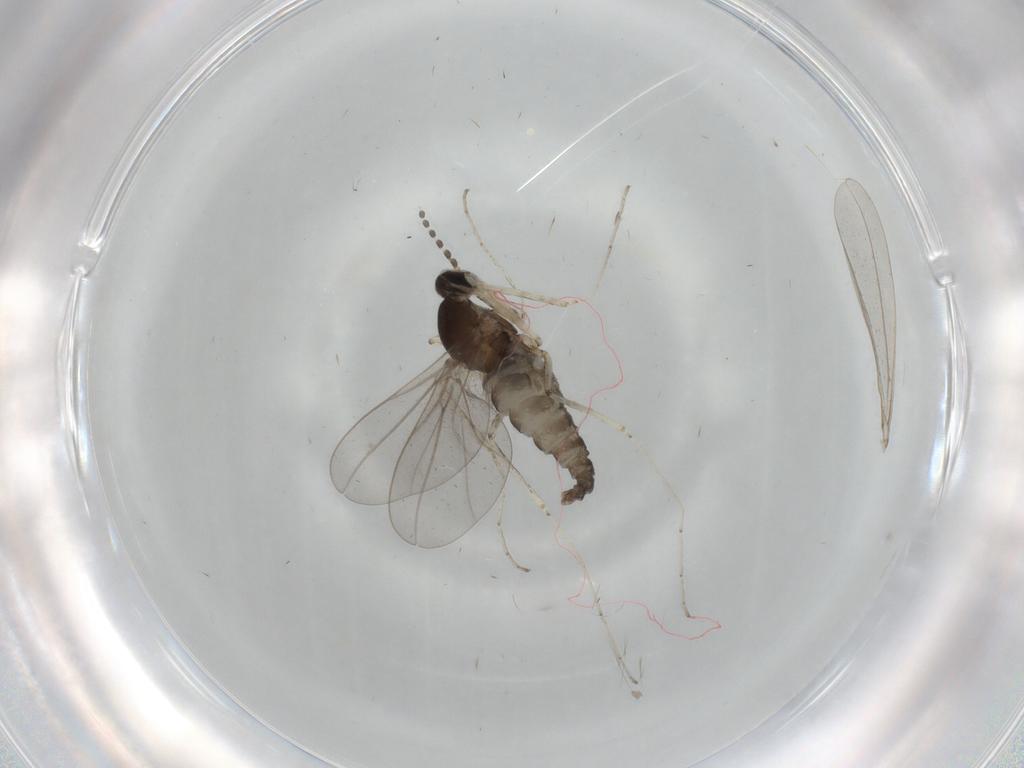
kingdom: Animalia
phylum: Arthropoda
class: Insecta
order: Diptera
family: Cecidomyiidae
